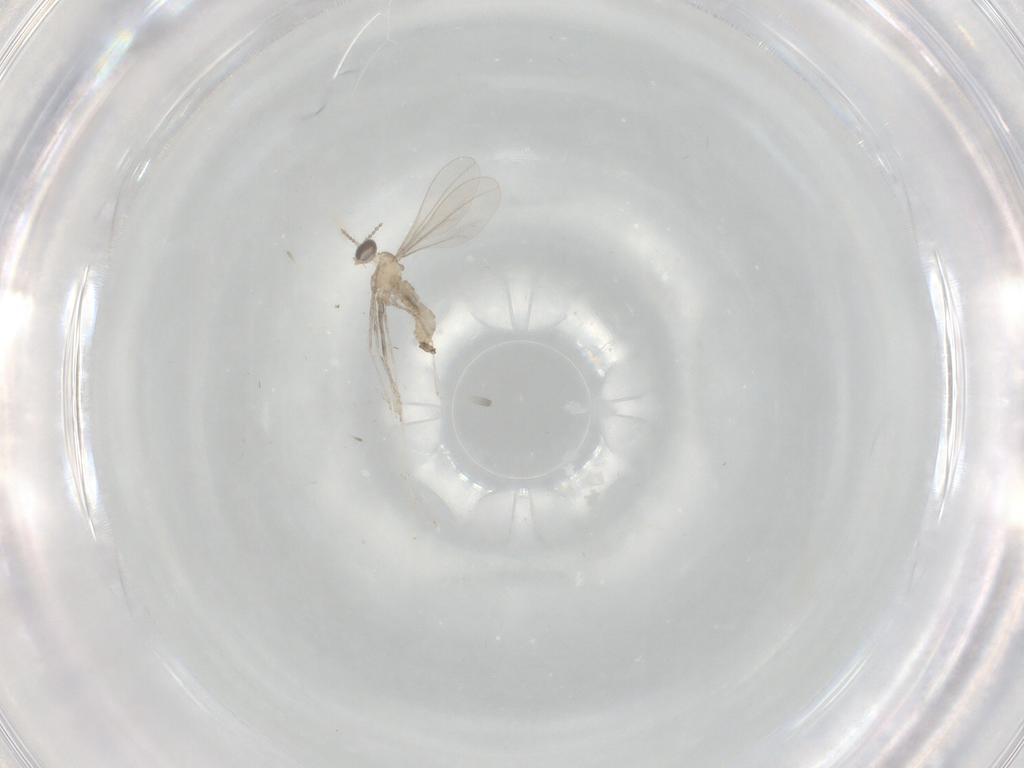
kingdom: Animalia
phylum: Arthropoda
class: Insecta
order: Diptera
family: Cecidomyiidae
